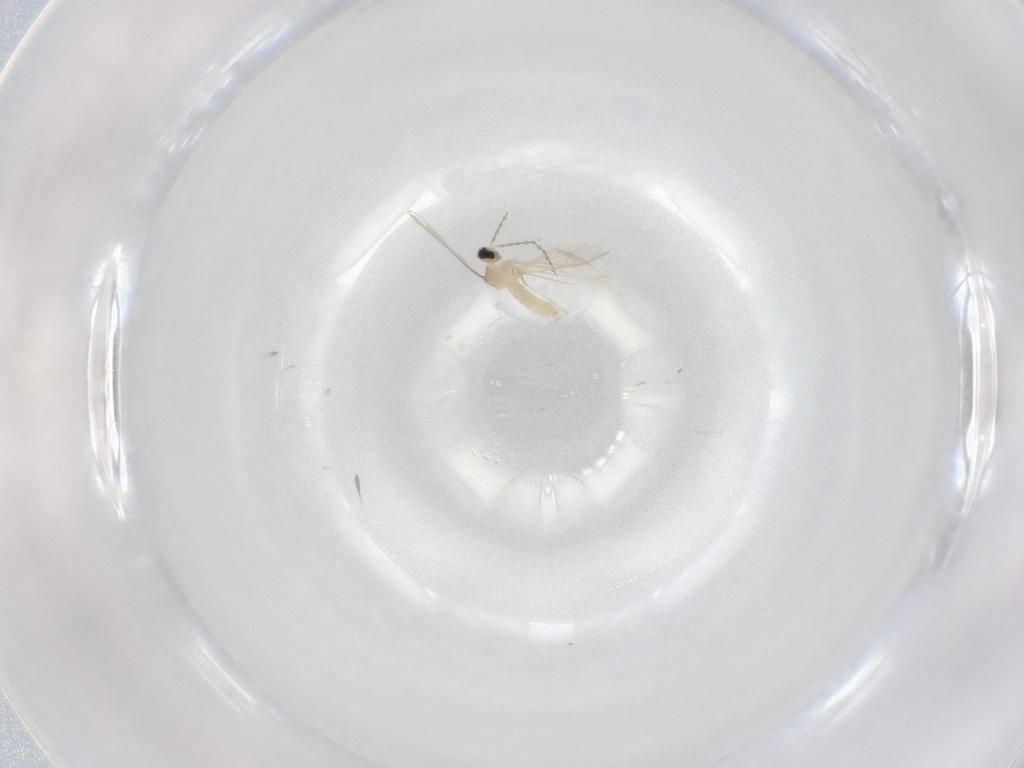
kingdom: Animalia
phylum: Arthropoda
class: Insecta
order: Diptera
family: Cecidomyiidae
